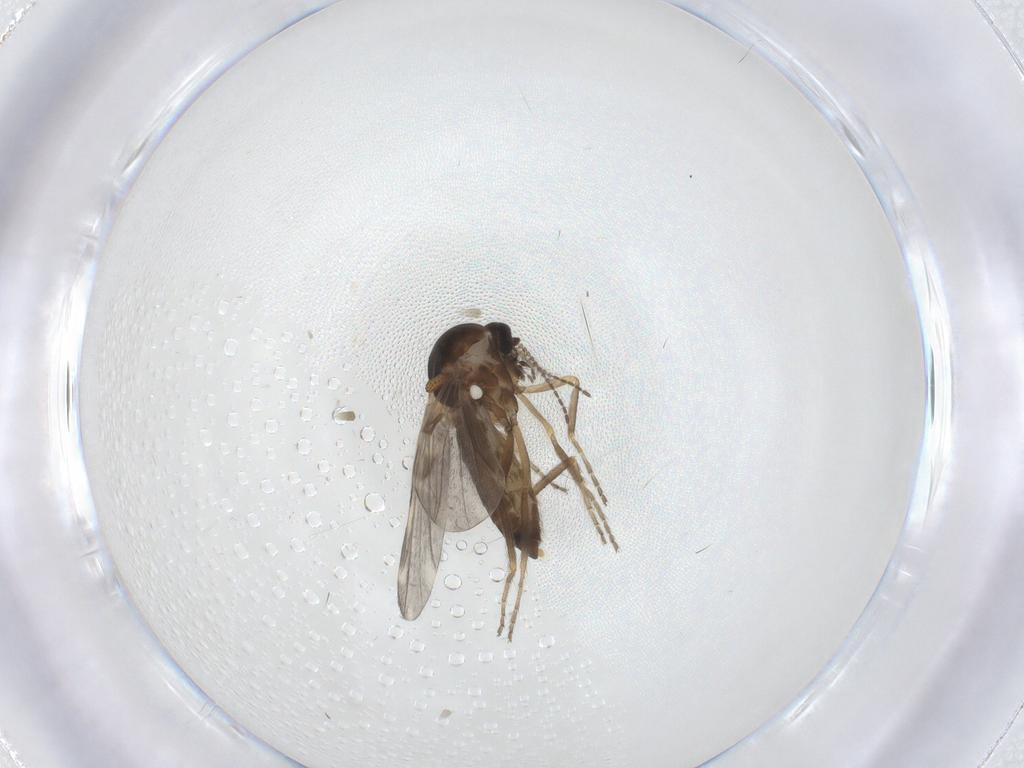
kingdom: Animalia
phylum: Arthropoda
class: Insecta
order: Diptera
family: Ceratopogonidae
